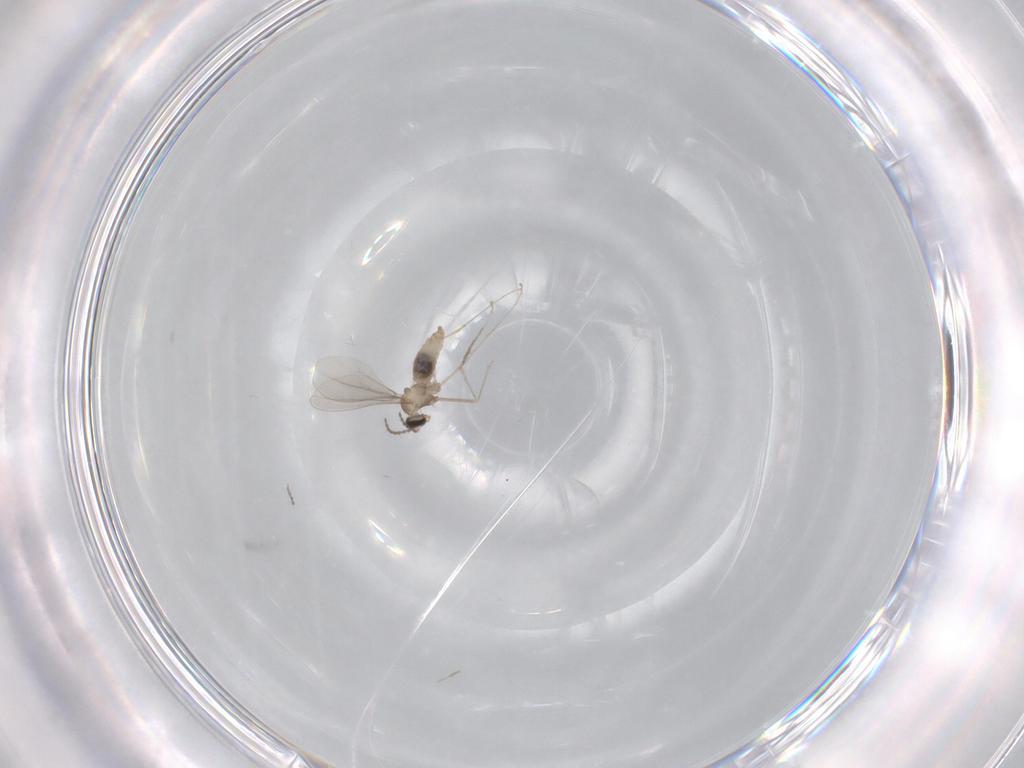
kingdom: Animalia
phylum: Arthropoda
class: Insecta
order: Diptera
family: Cecidomyiidae
